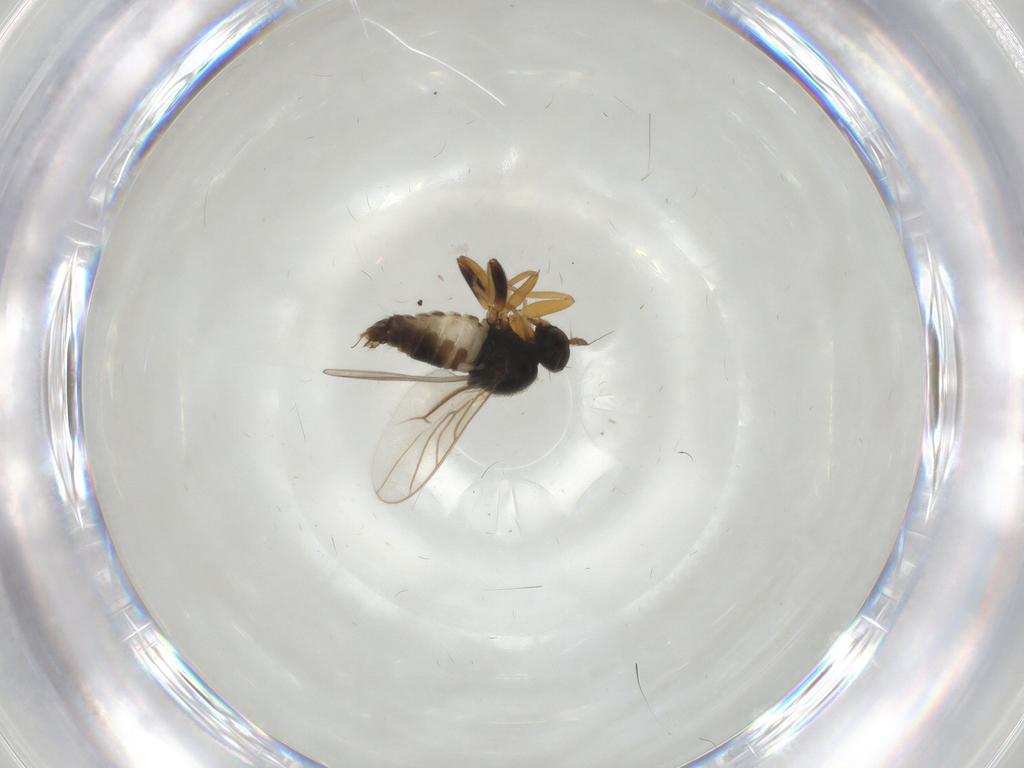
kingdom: Animalia
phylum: Arthropoda
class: Insecta
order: Diptera
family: Hybotidae
